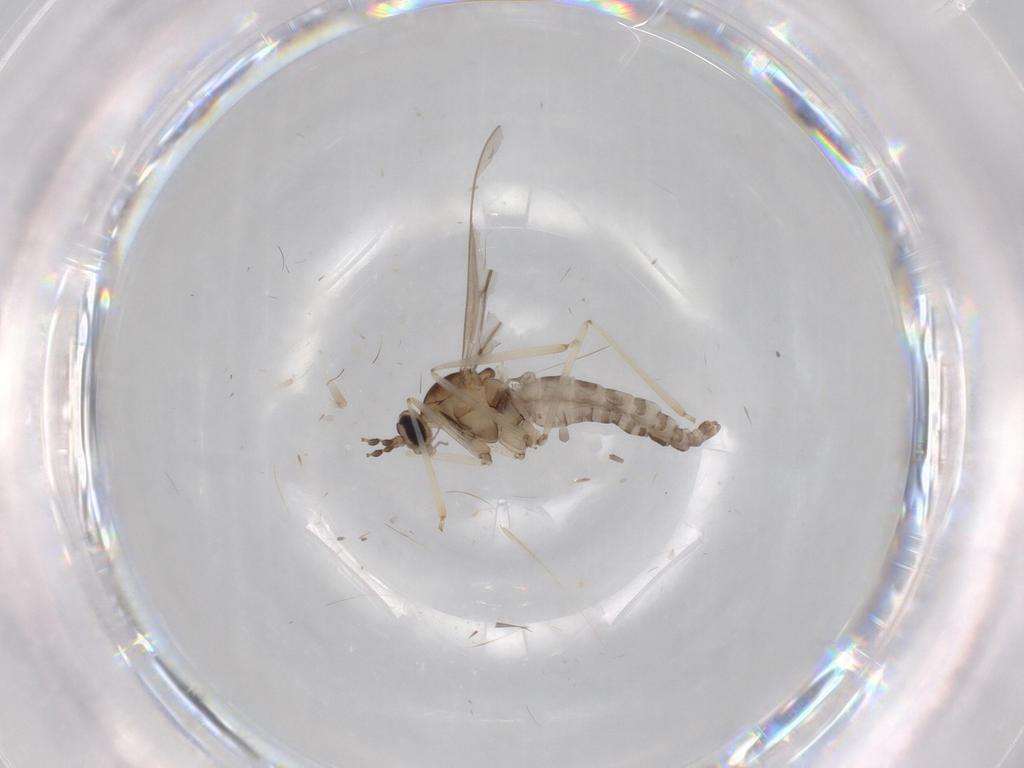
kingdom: Animalia
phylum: Arthropoda
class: Insecta
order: Diptera
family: Cecidomyiidae
